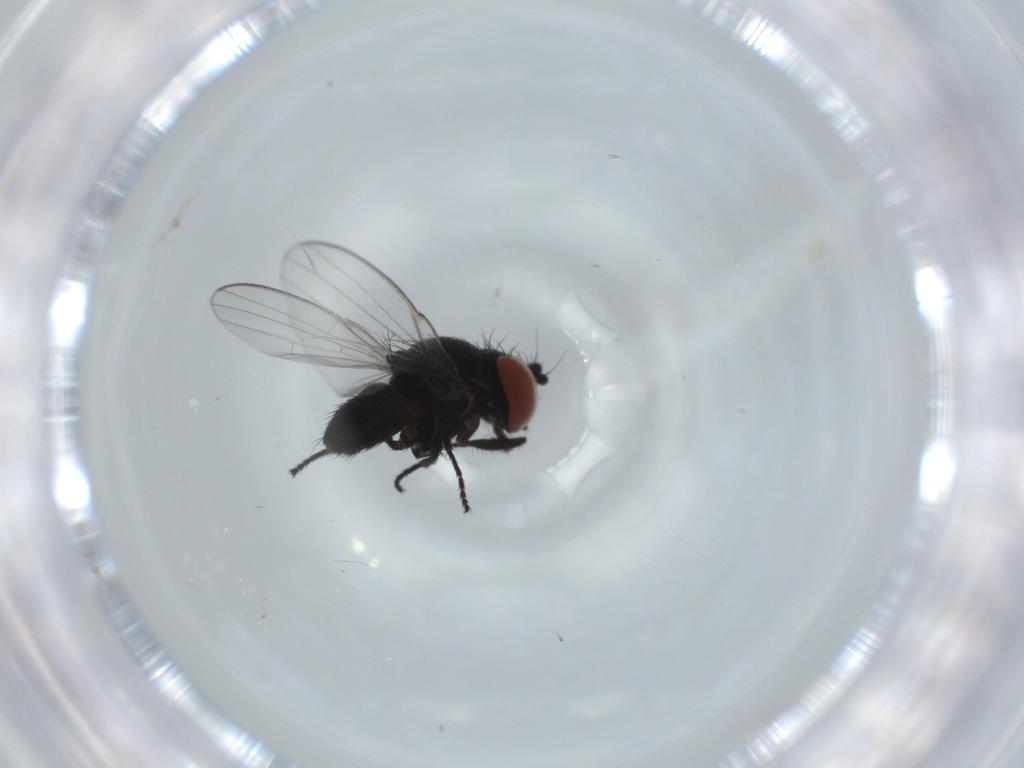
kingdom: Animalia
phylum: Arthropoda
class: Insecta
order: Diptera
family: Milichiidae
